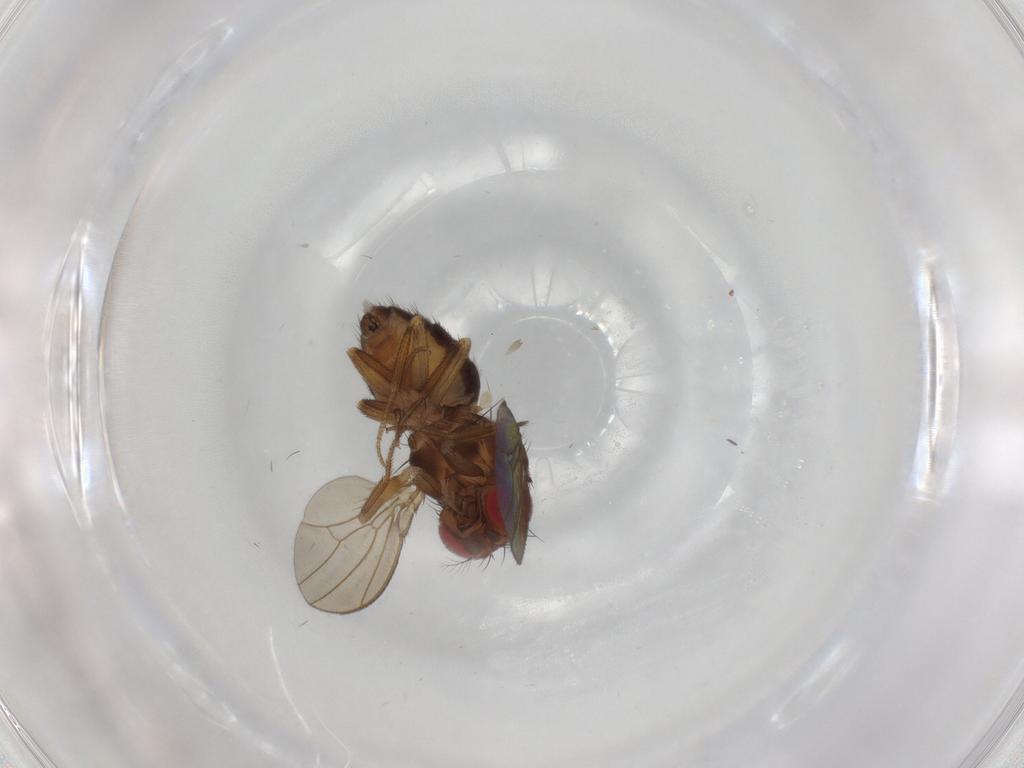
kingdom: Animalia
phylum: Arthropoda
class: Insecta
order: Diptera
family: Drosophilidae
